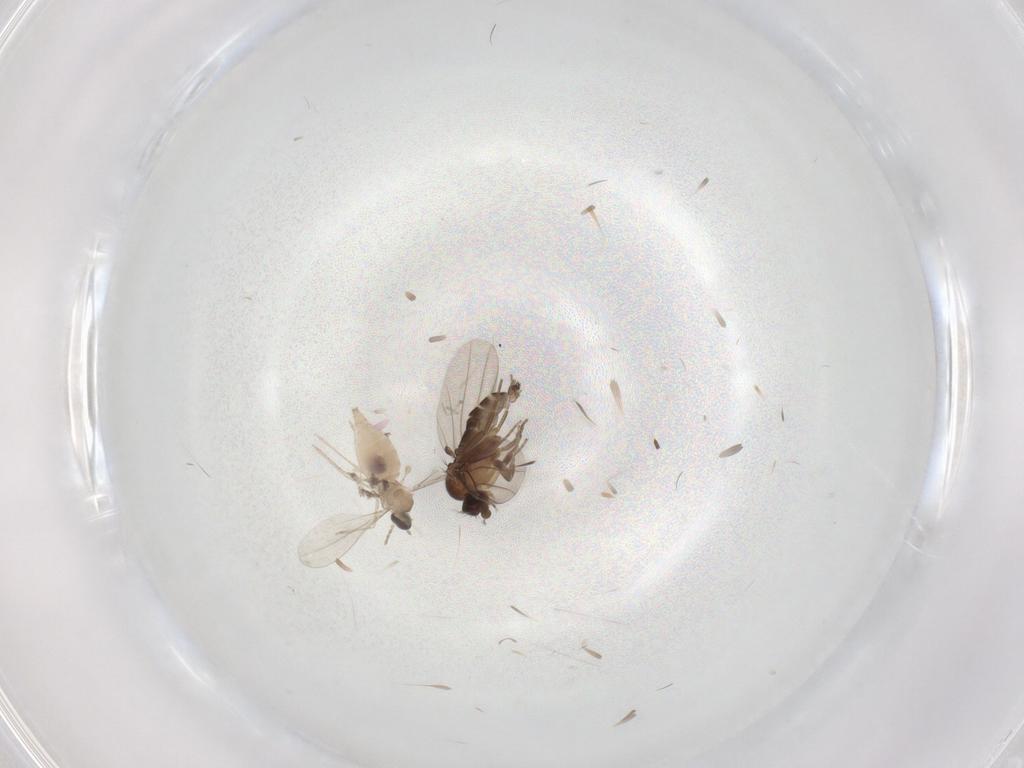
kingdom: Animalia
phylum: Arthropoda
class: Insecta
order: Diptera
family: Cecidomyiidae
